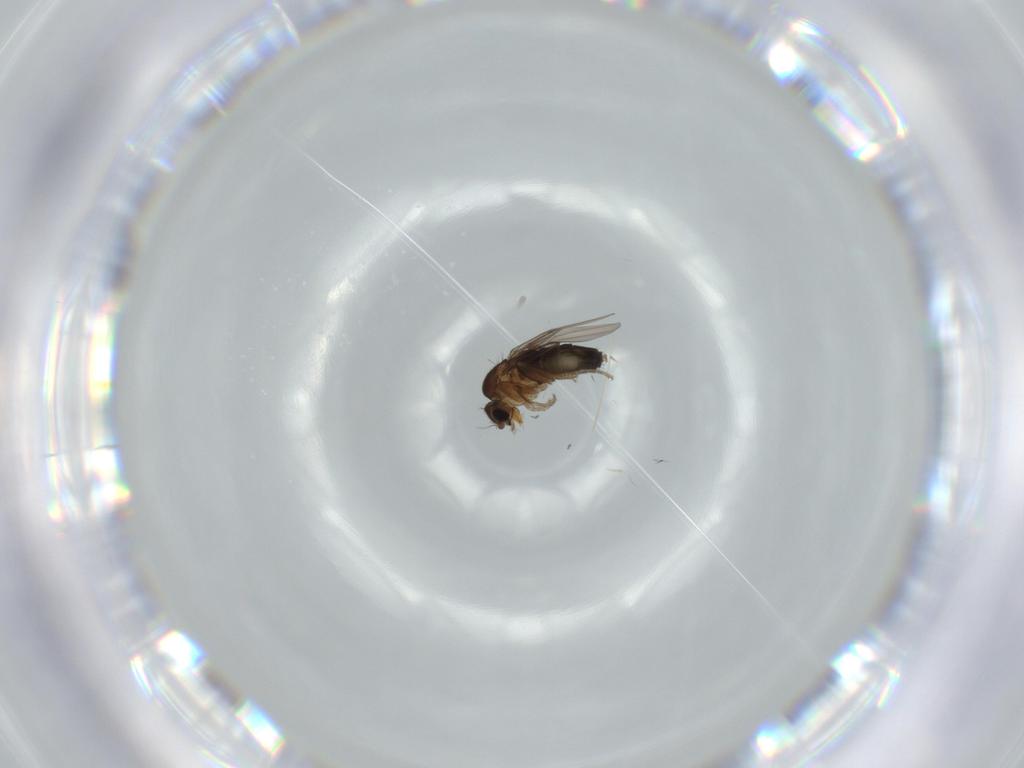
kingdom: Animalia
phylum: Arthropoda
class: Insecta
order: Diptera
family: Phoridae
